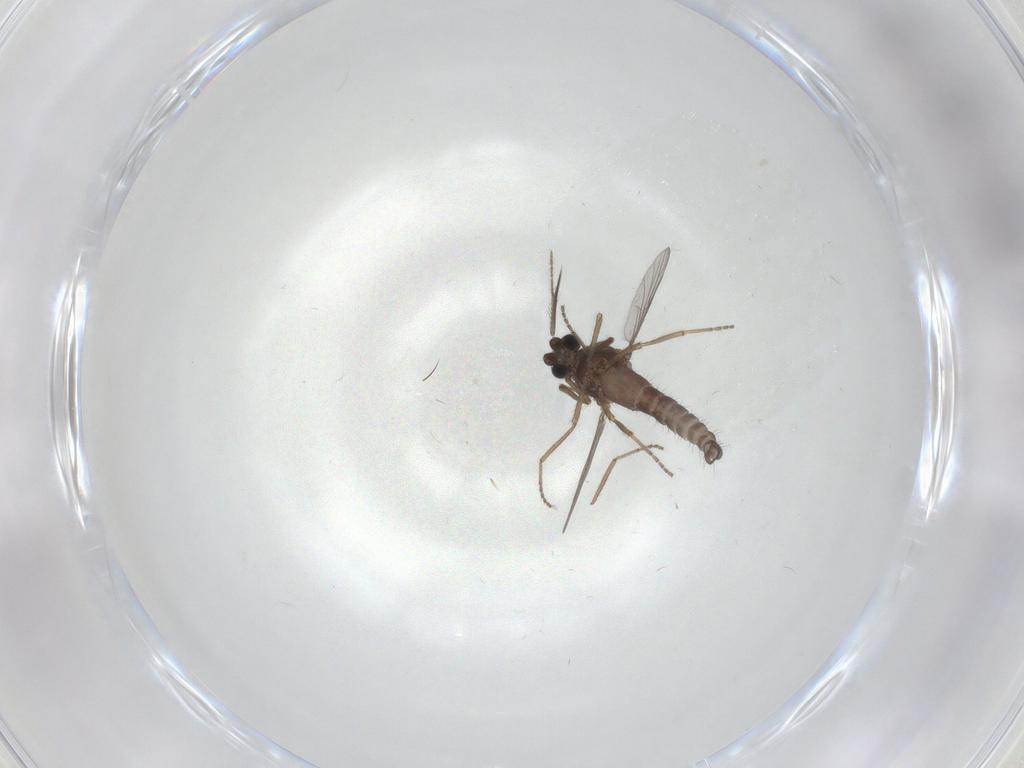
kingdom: Animalia
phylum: Arthropoda
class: Insecta
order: Diptera
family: Ceratopogonidae
